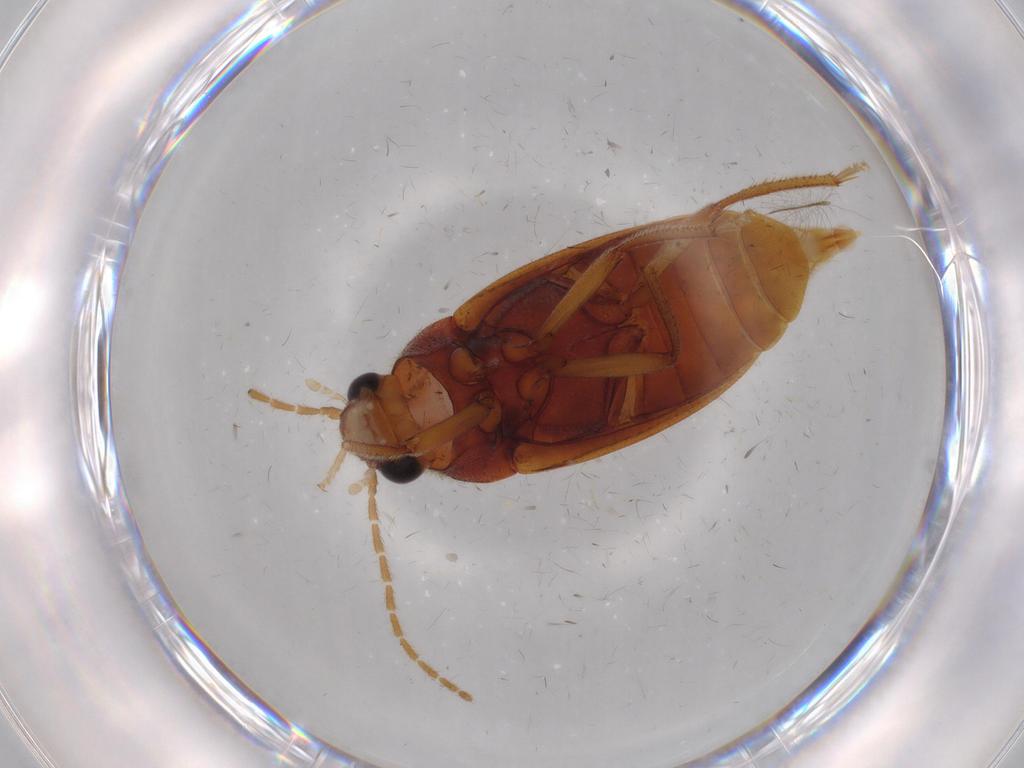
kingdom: Animalia
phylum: Arthropoda
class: Insecta
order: Coleoptera
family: Ptilodactylidae
